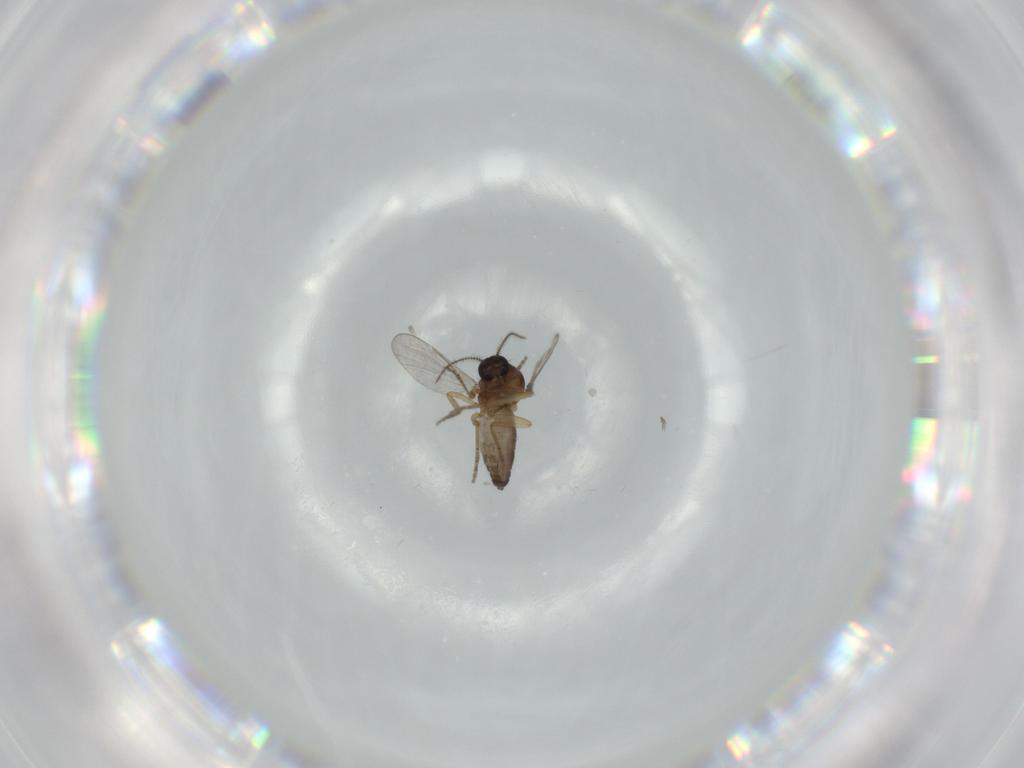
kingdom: Animalia
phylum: Arthropoda
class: Insecta
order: Diptera
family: Ceratopogonidae
